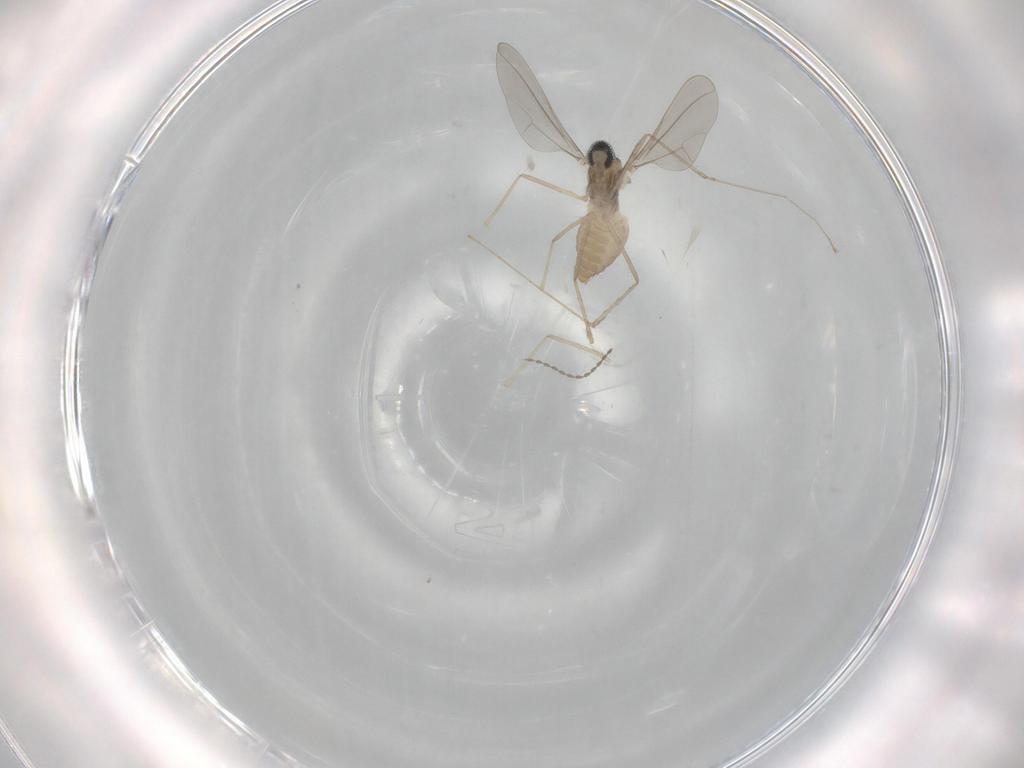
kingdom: Animalia
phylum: Arthropoda
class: Insecta
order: Diptera
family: Cecidomyiidae
